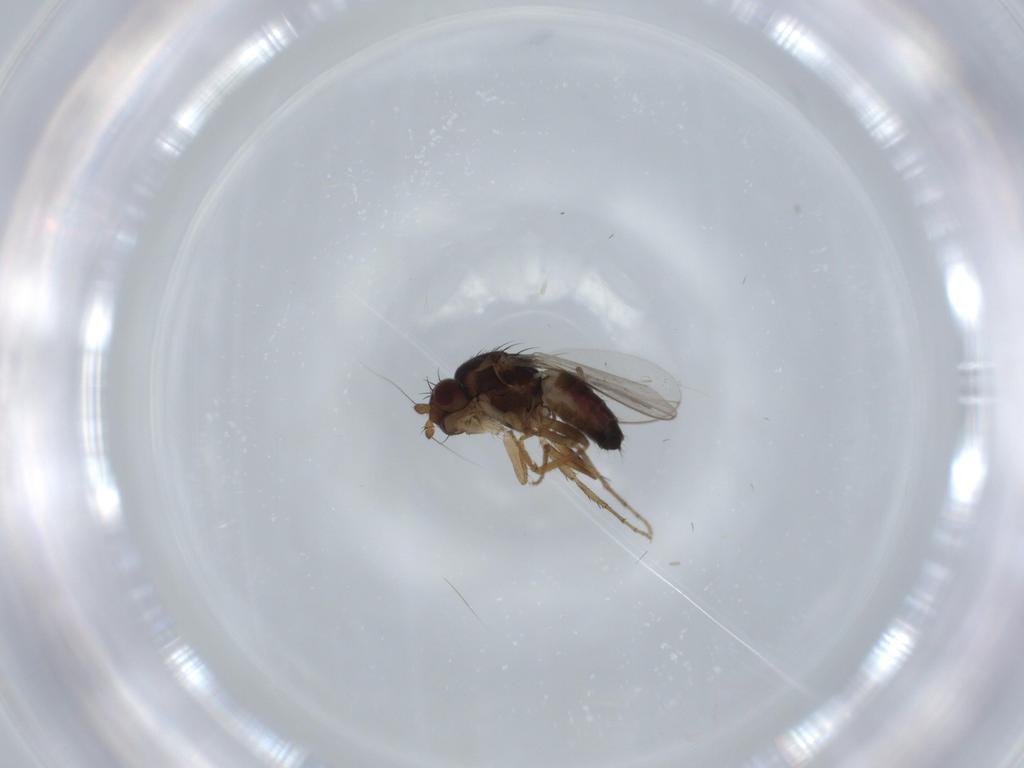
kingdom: Animalia
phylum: Arthropoda
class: Insecta
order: Diptera
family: Cecidomyiidae
